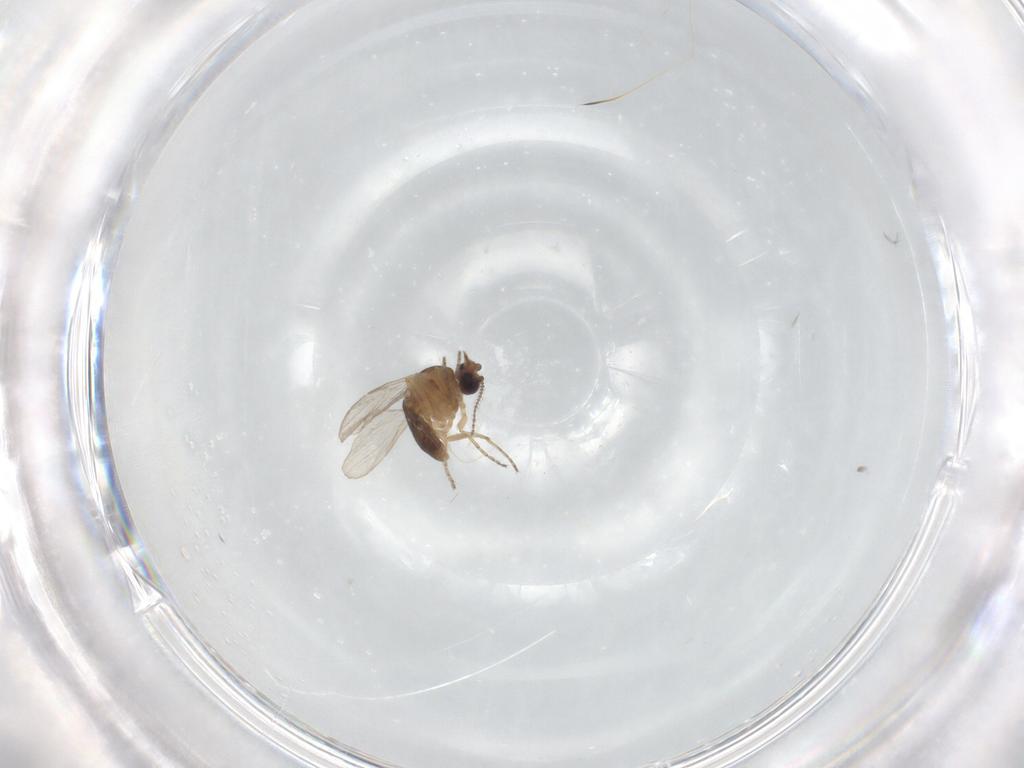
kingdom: Animalia
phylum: Arthropoda
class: Insecta
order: Diptera
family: Ceratopogonidae
